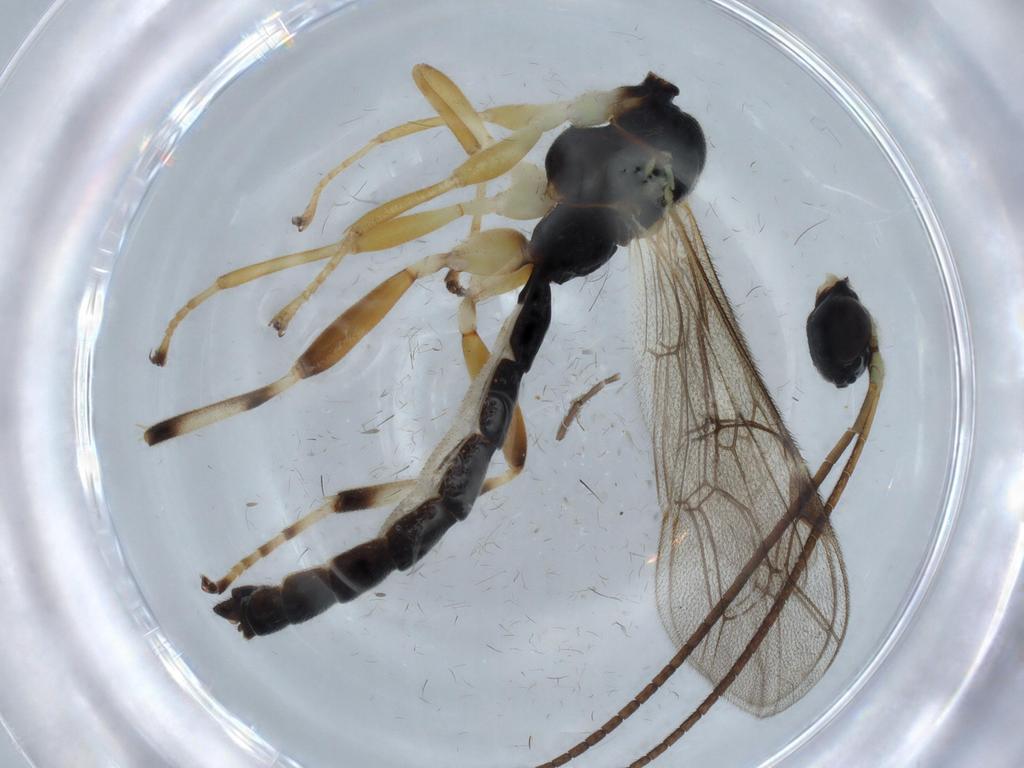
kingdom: Animalia
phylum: Arthropoda
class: Insecta
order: Hymenoptera
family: Ichneumonidae
